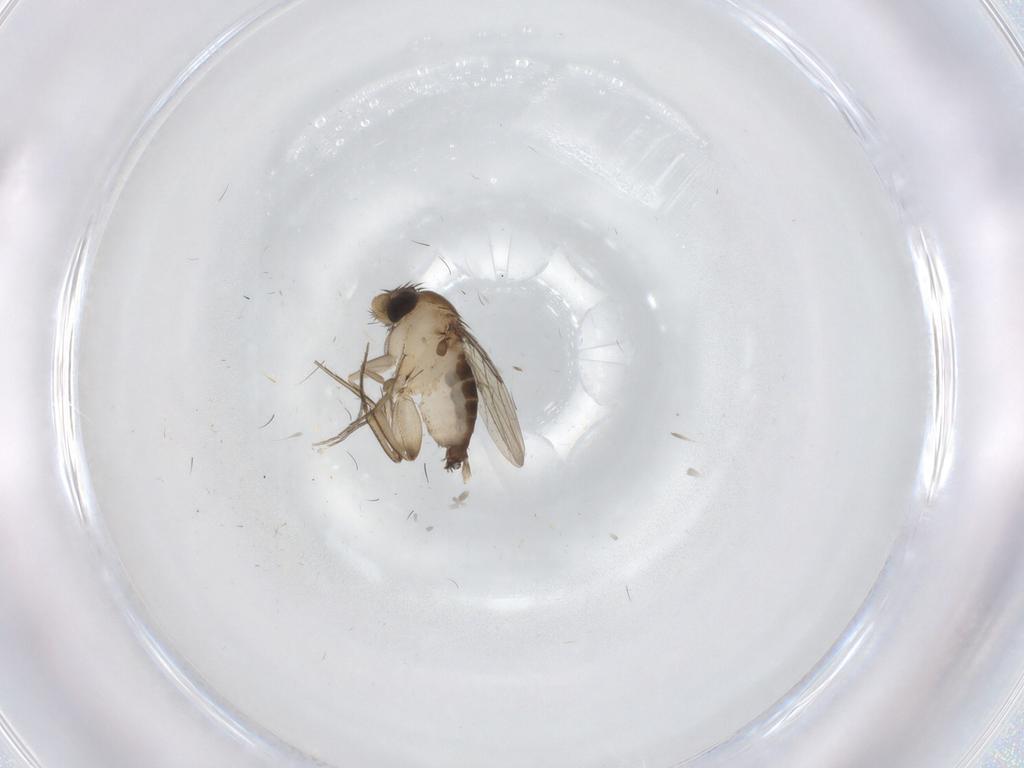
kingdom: Animalia
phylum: Arthropoda
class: Insecta
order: Diptera
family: Phoridae
